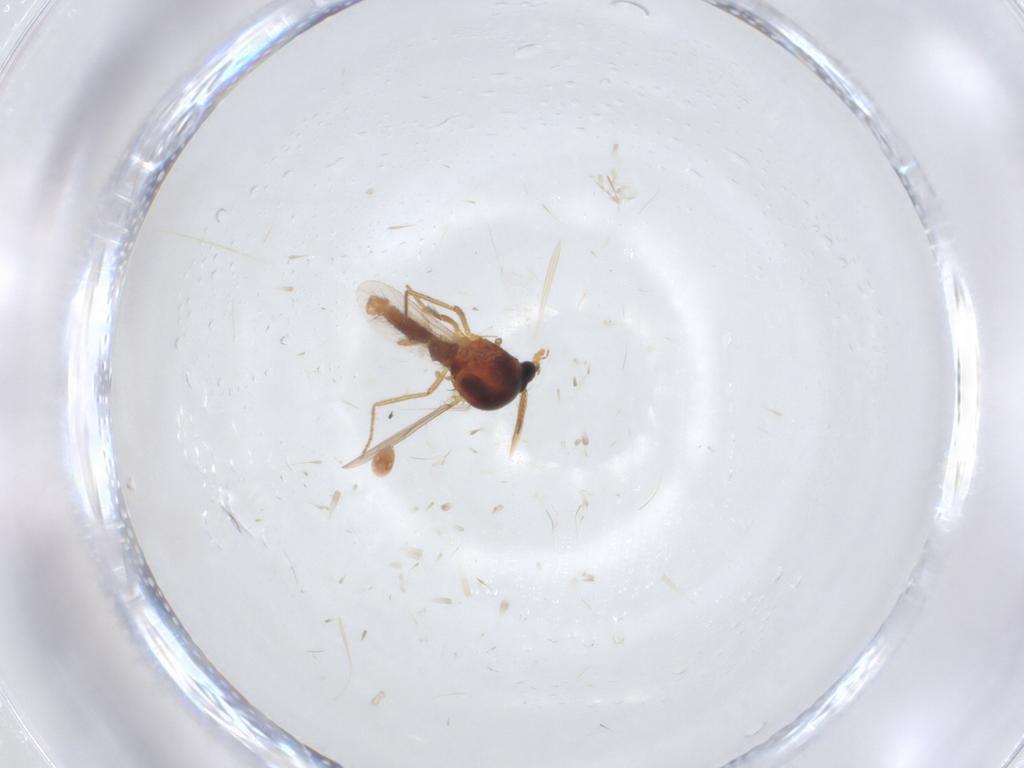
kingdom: Animalia
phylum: Arthropoda
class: Insecta
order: Diptera
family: Ceratopogonidae
